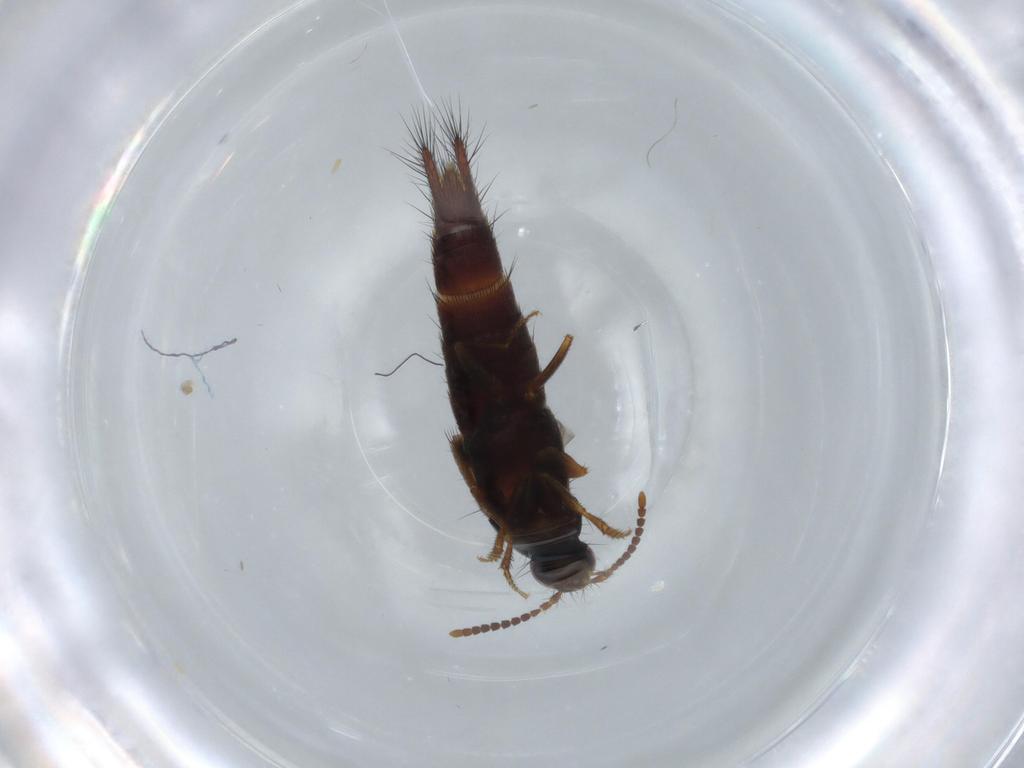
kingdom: Animalia
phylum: Arthropoda
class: Insecta
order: Coleoptera
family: Staphylinidae
